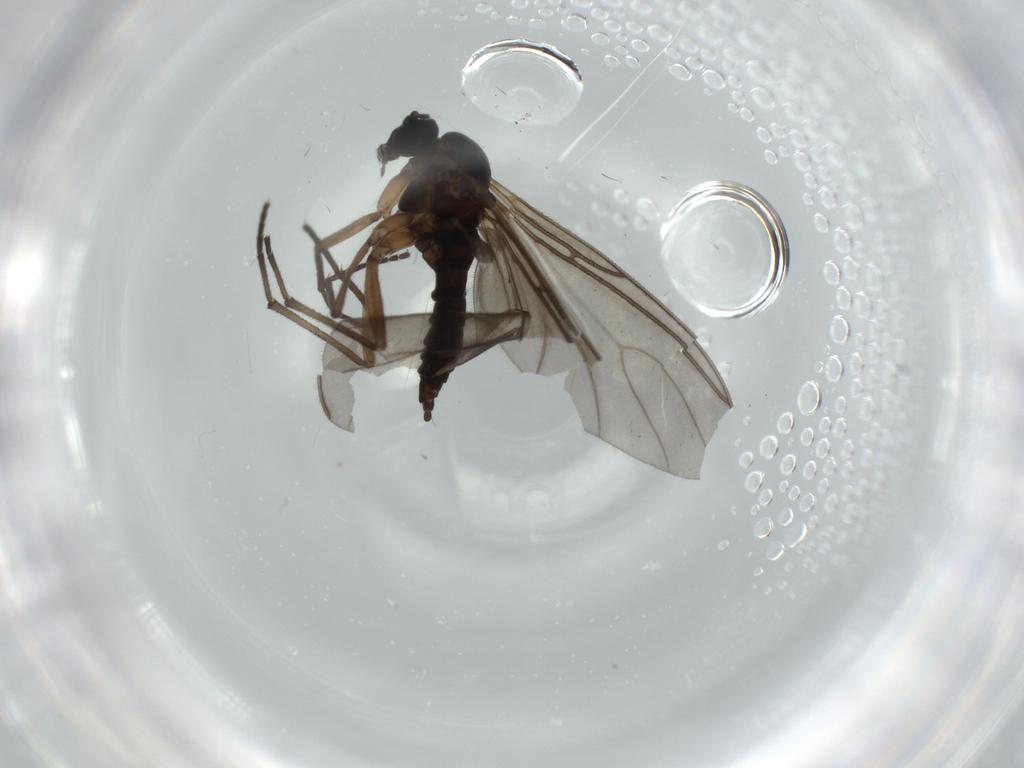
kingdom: Animalia
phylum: Arthropoda
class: Insecta
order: Diptera
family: Sciaridae
